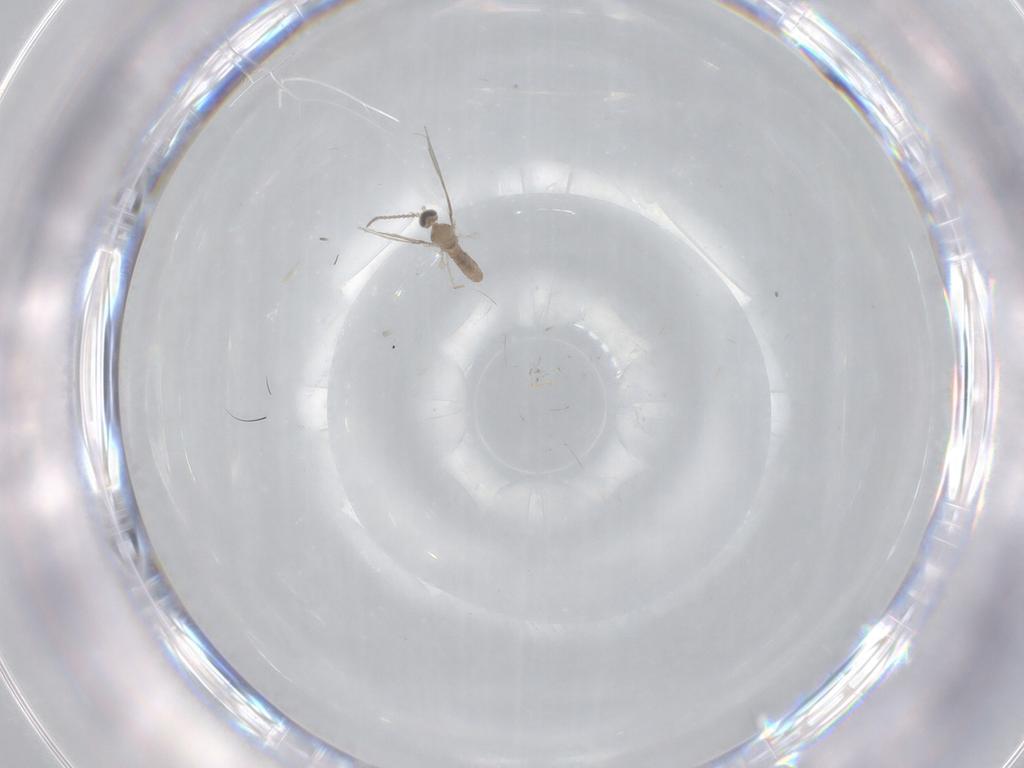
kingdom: Animalia
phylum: Arthropoda
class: Insecta
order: Diptera
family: Cecidomyiidae
